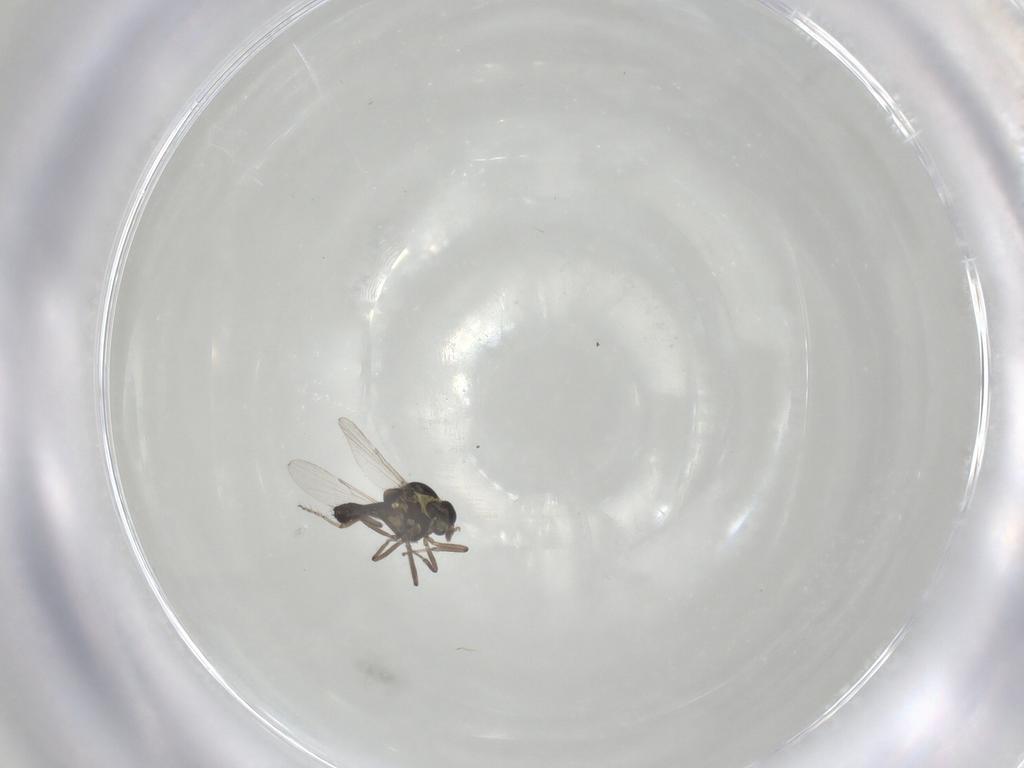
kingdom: Animalia
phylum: Arthropoda
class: Insecta
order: Diptera
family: Ceratopogonidae
